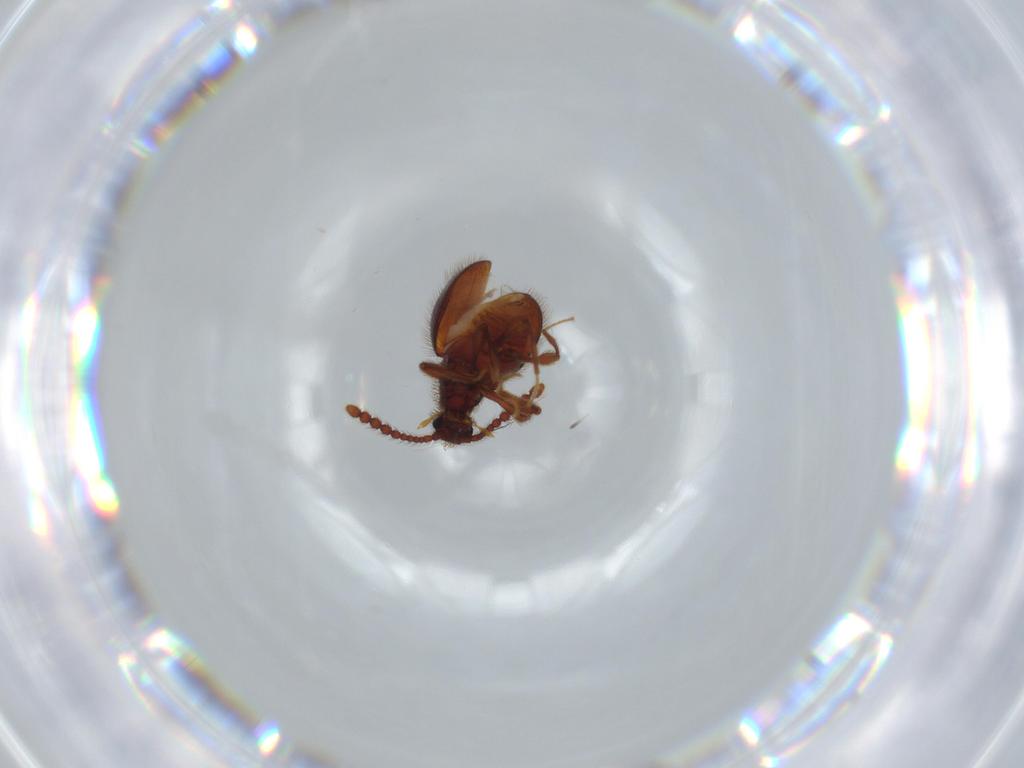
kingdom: Animalia
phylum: Arthropoda
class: Insecta
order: Coleoptera
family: Staphylinidae
